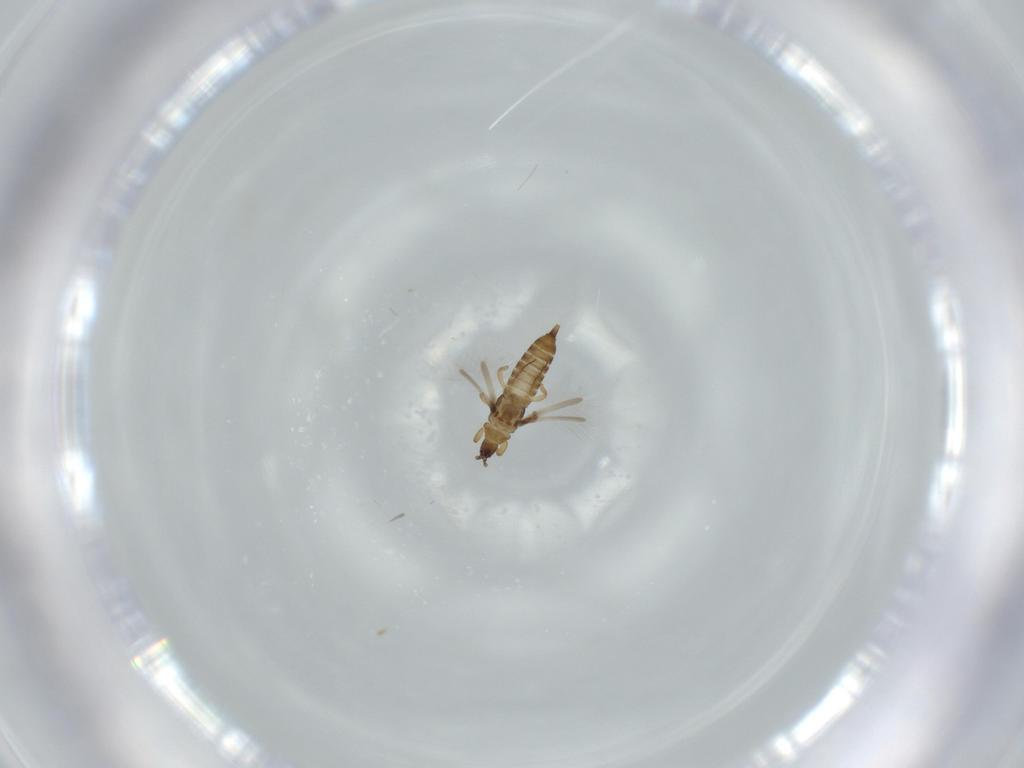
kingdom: Animalia
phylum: Arthropoda
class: Insecta
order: Thysanoptera
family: Phlaeothripidae
